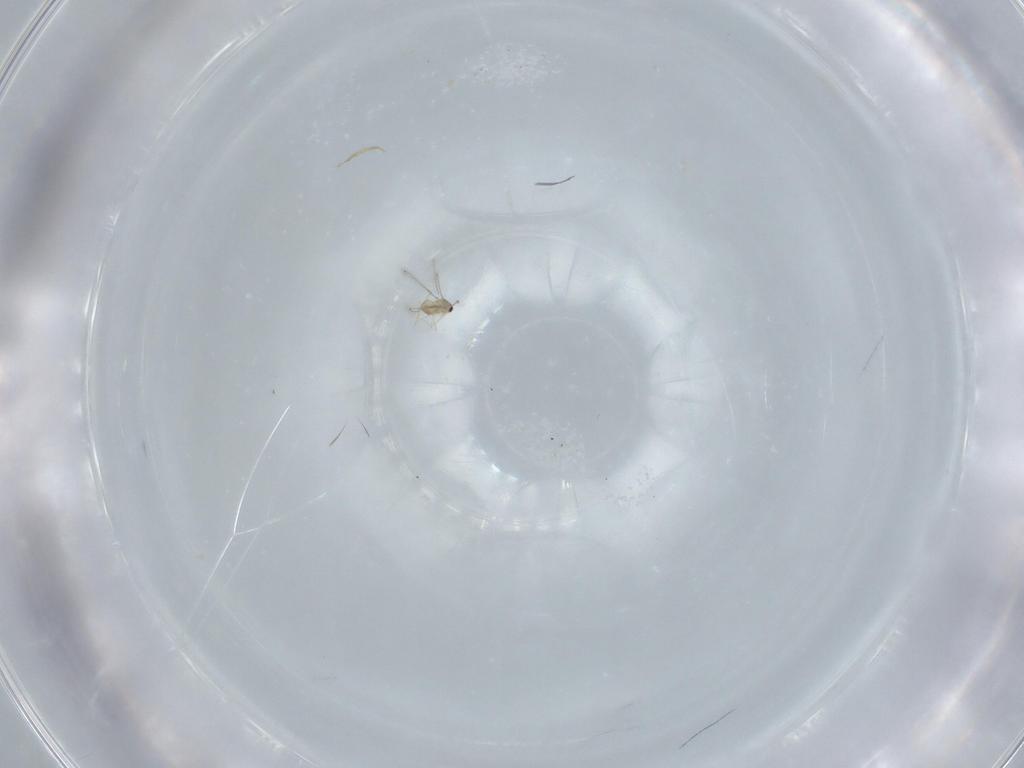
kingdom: Animalia
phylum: Arthropoda
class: Insecta
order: Hymenoptera
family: Mymaridae
